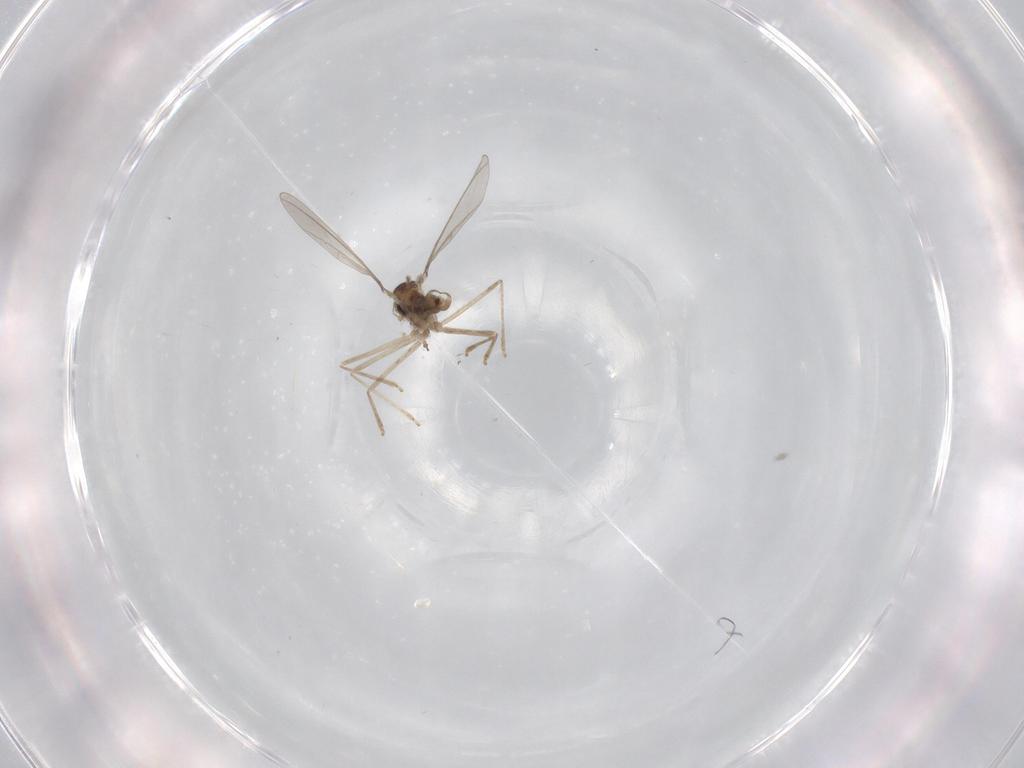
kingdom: Animalia
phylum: Arthropoda
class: Insecta
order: Diptera
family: Cecidomyiidae
